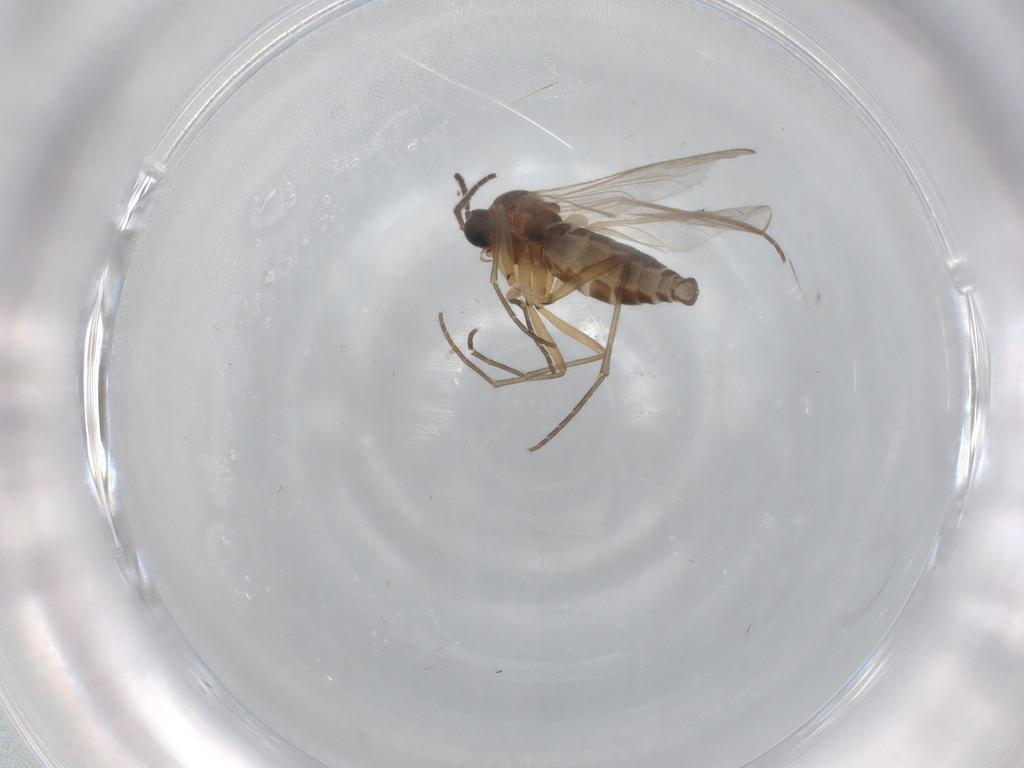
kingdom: Animalia
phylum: Arthropoda
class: Insecta
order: Diptera
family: Sciaridae
